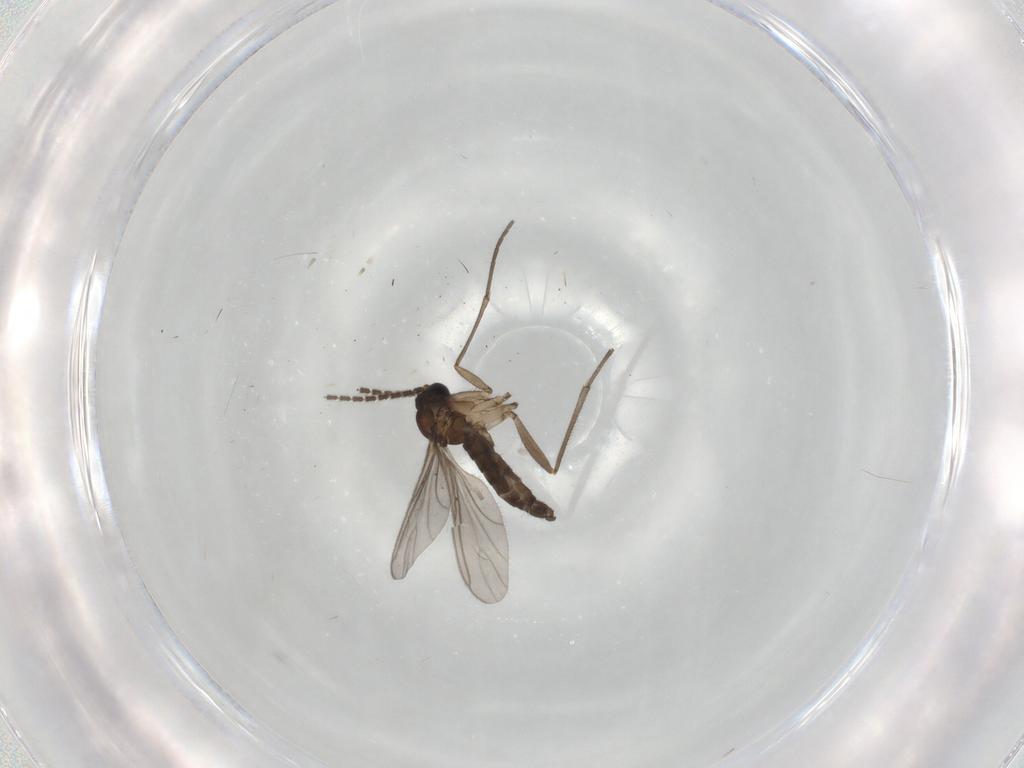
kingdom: Animalia
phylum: Arthropoda
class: Insecta
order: Diptera
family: Sciaridae
